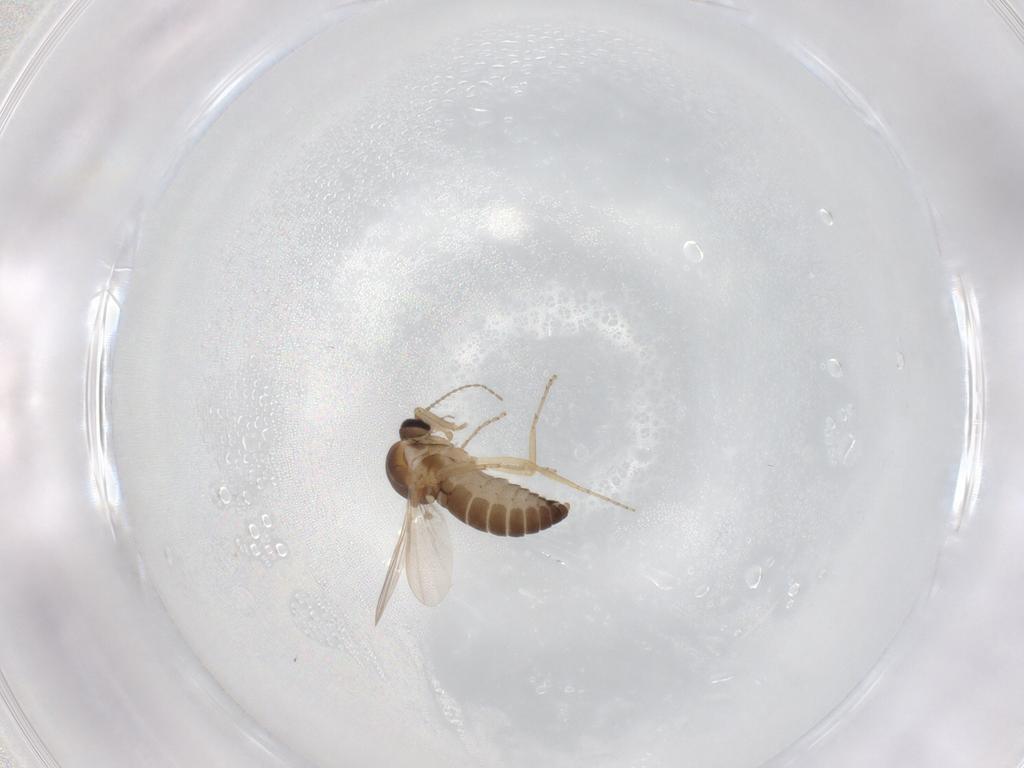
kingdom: Animalia
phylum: Arthropoda
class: Insecta
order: Diptera
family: Ceratopogonidae
